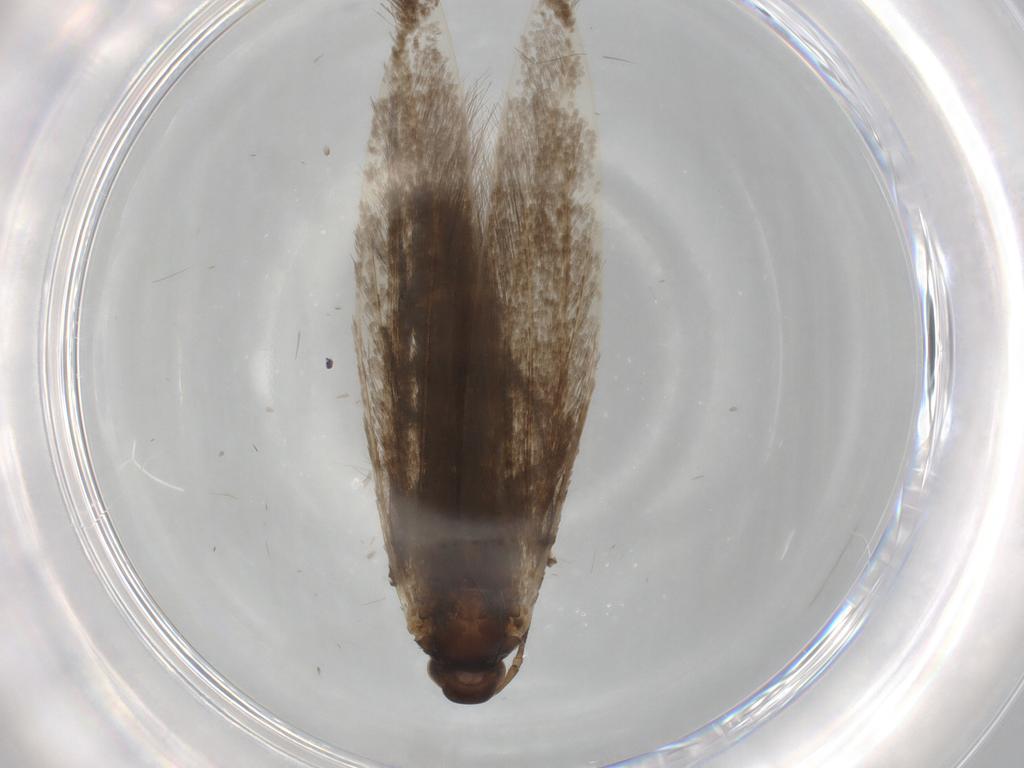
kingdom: Animalia
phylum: Arthropoda
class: Insecta
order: Lepidoptera
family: Coleophoridae
